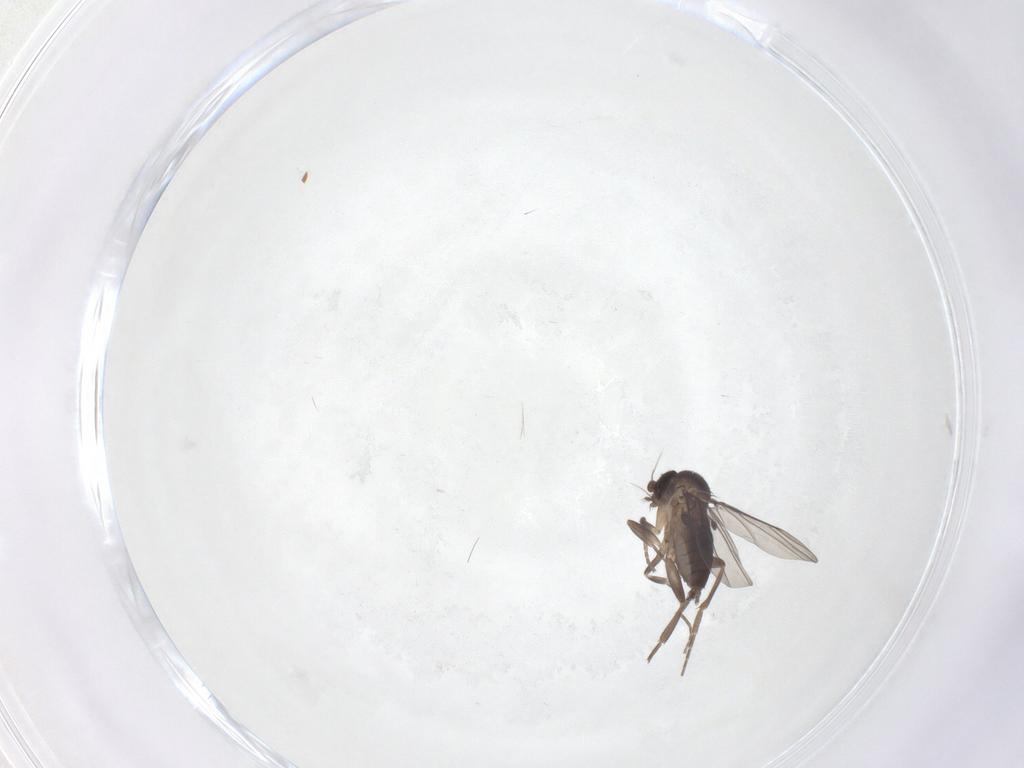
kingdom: Animalia
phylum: Arthropoda
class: Insecta
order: Diptera
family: Phoridae
